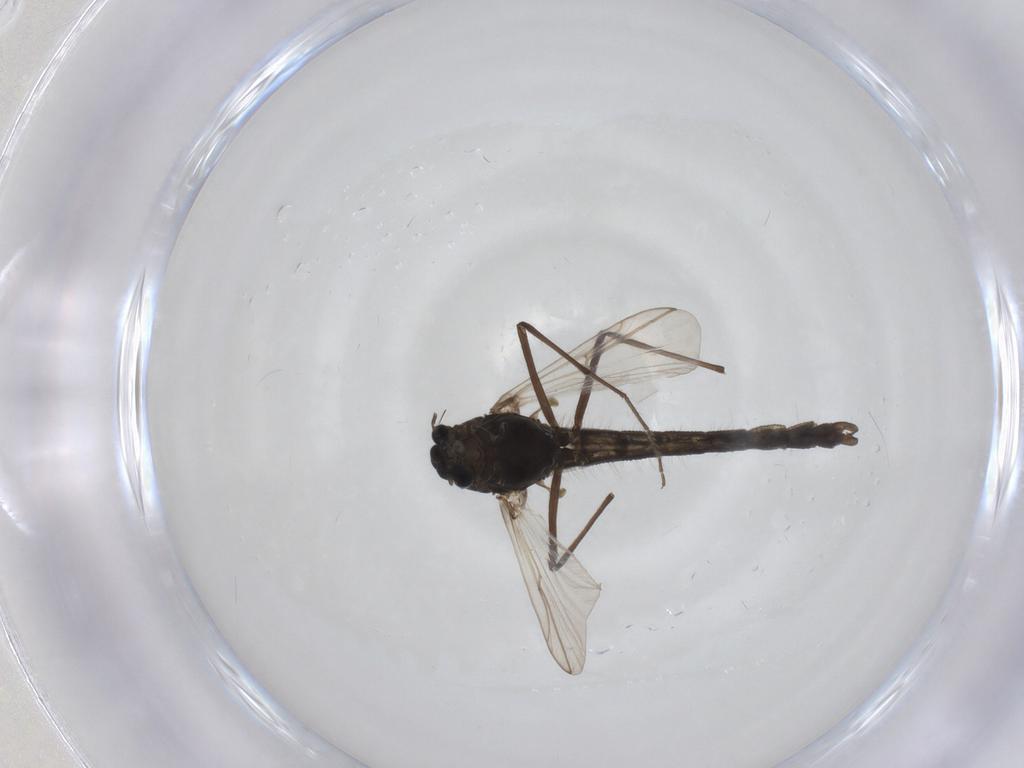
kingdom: Animalia
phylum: Arthropoda
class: Insecta
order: Diptera
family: Chironomidae
